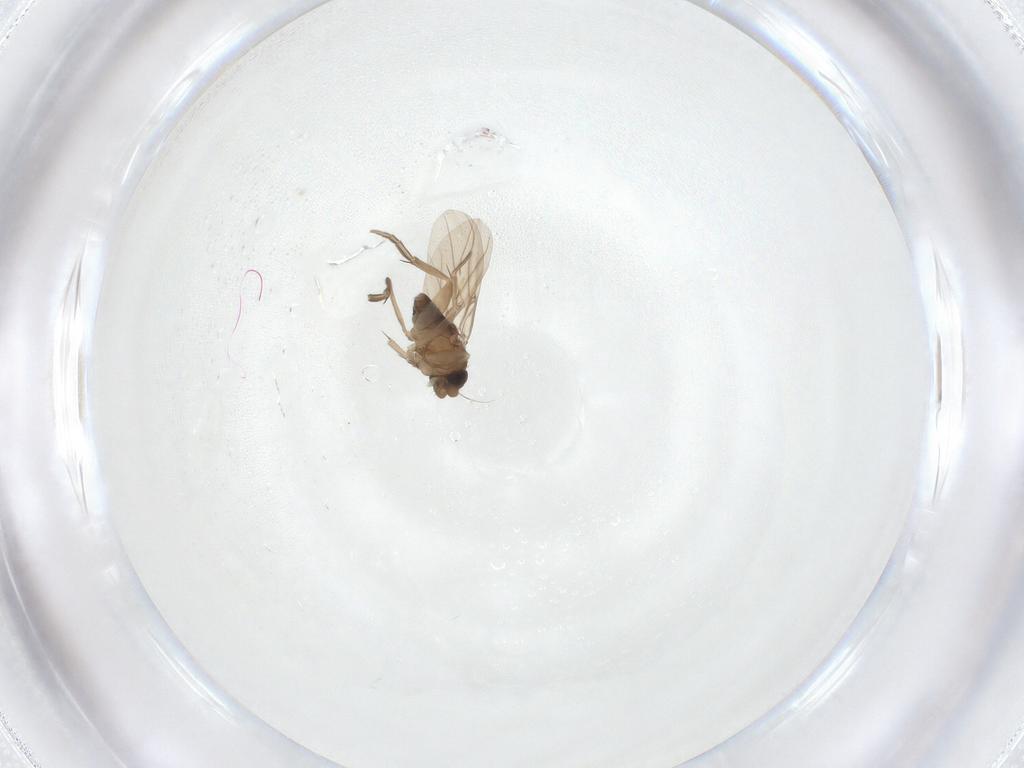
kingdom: Animalia
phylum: Arthropoda
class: Insecta
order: Diptera
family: Phoridae
